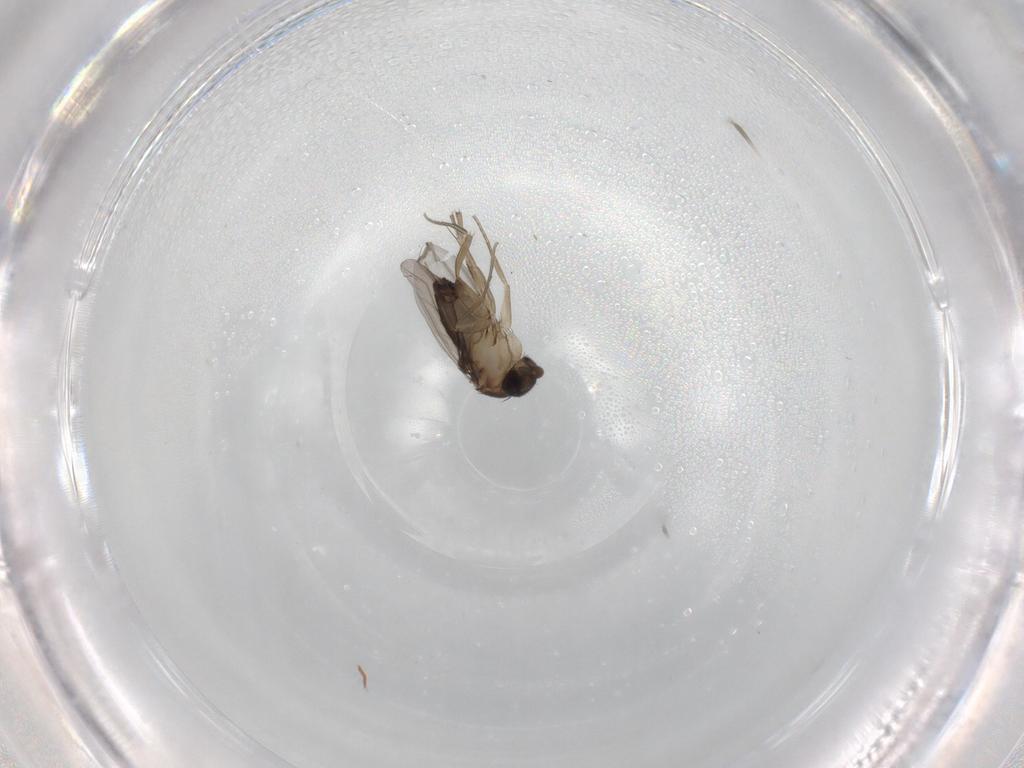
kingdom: Animalia
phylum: Arthropoda
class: Insecta
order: Diptera
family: Phoridae
